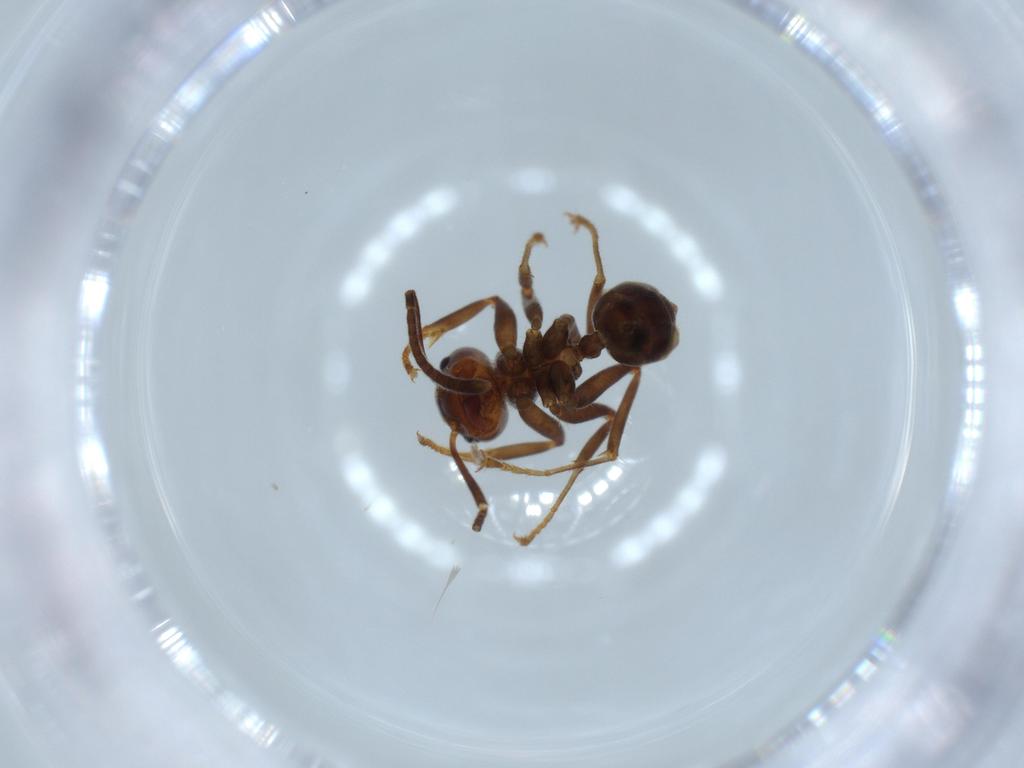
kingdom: Animalia
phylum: Arthropoda
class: Insecta
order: Hymenoptera
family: Formicidae
